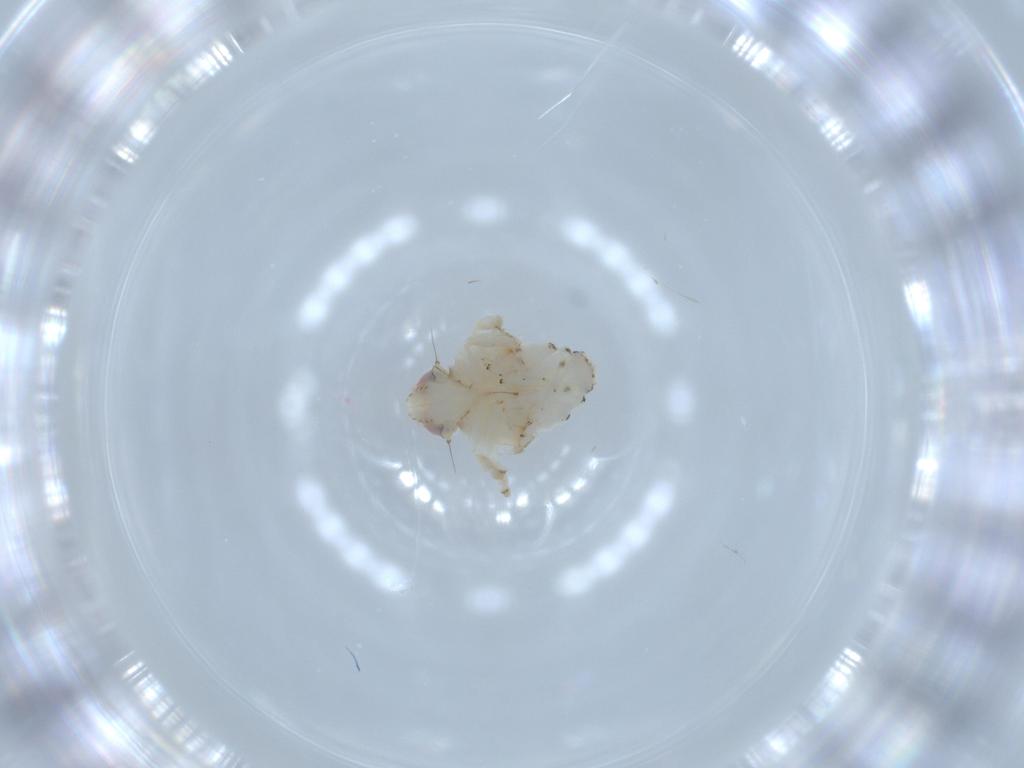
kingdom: Animalia
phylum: Arthropoda
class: Insecta
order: Hemiptera
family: Nogodinidae
